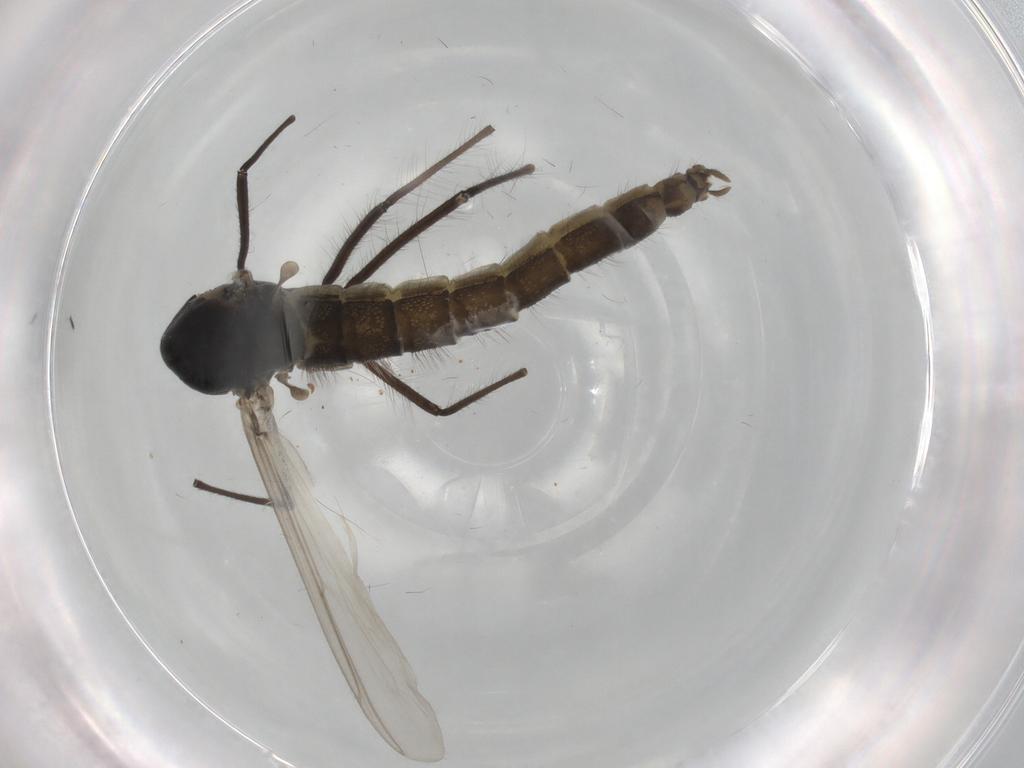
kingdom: Animalia
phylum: Arthropoda
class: Insecta
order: Diptera
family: Chironomidae
